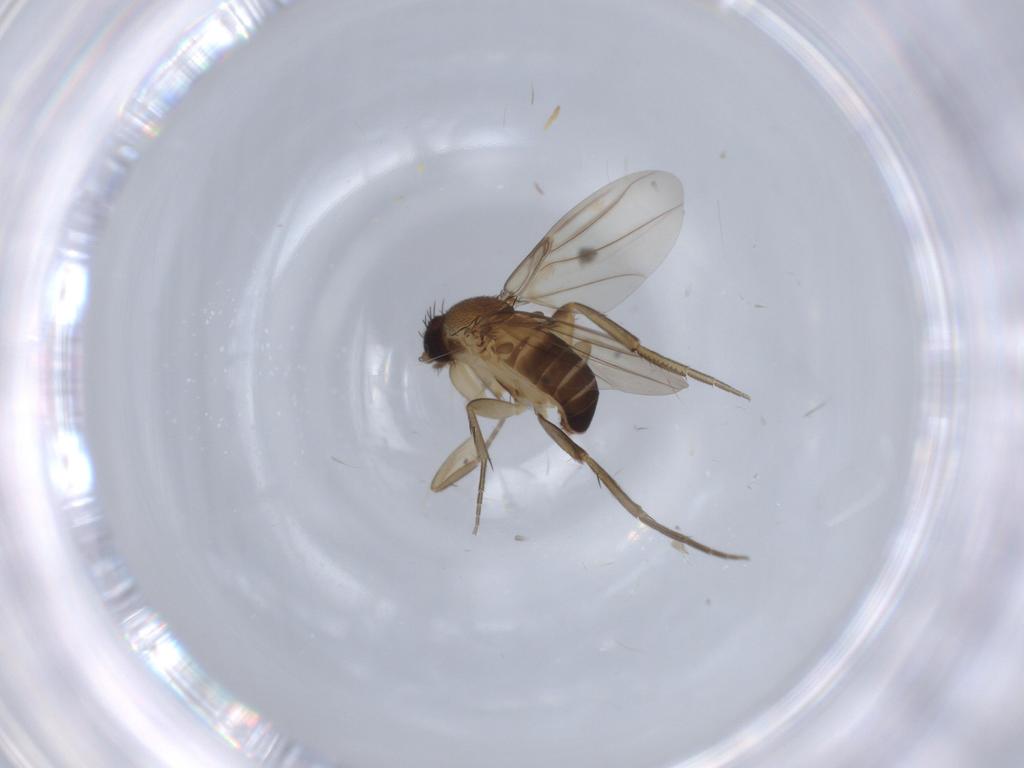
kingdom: Animalia
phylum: Arthropoda
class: Insecta
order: Diptera
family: Phoridae
